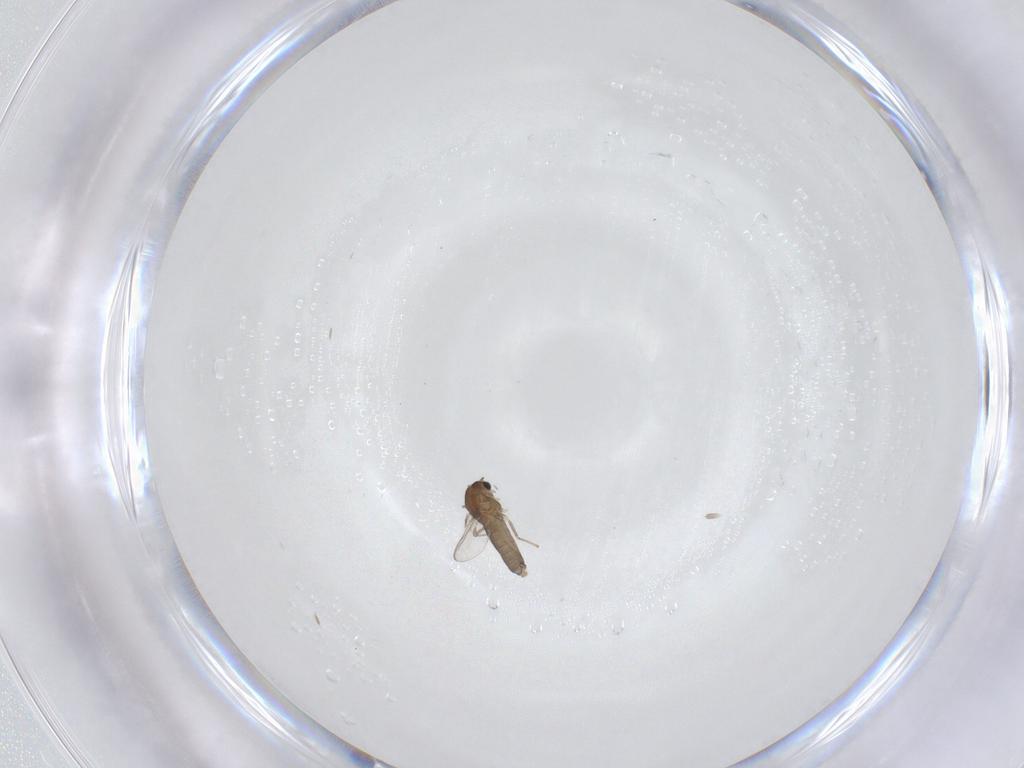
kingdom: Animalia
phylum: Arthropoda
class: Insecta
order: Diptera
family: Chironomidae
